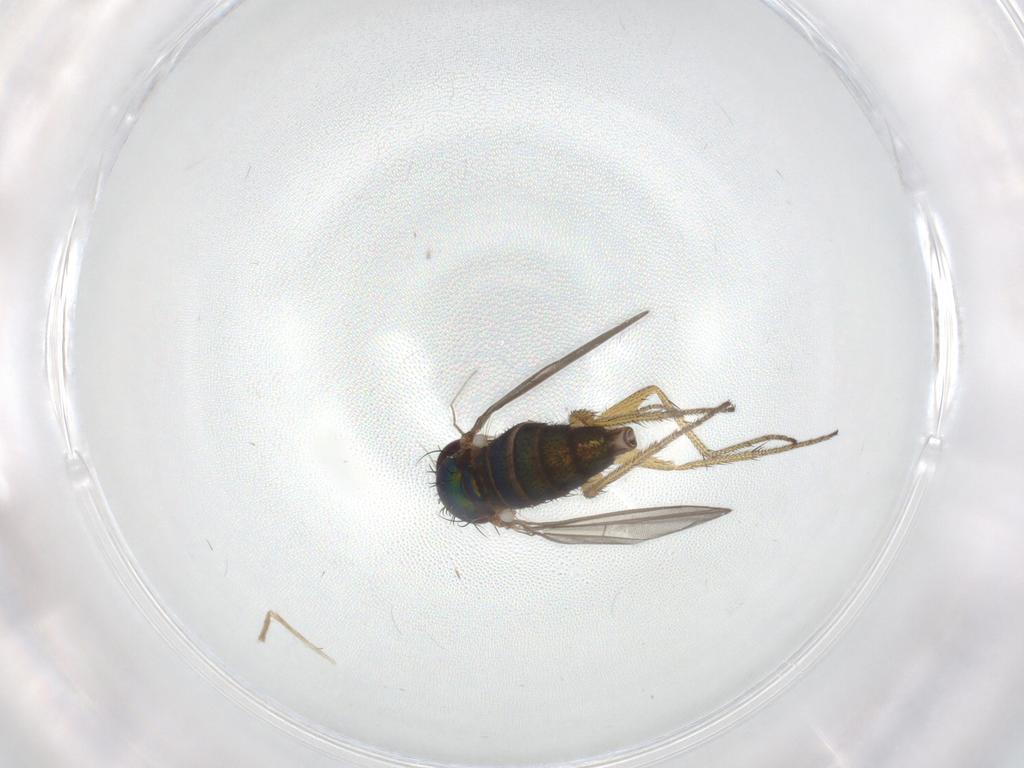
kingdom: Animalia
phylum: Arthropoda
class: Insecta
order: Diptera
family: Chironomidae
